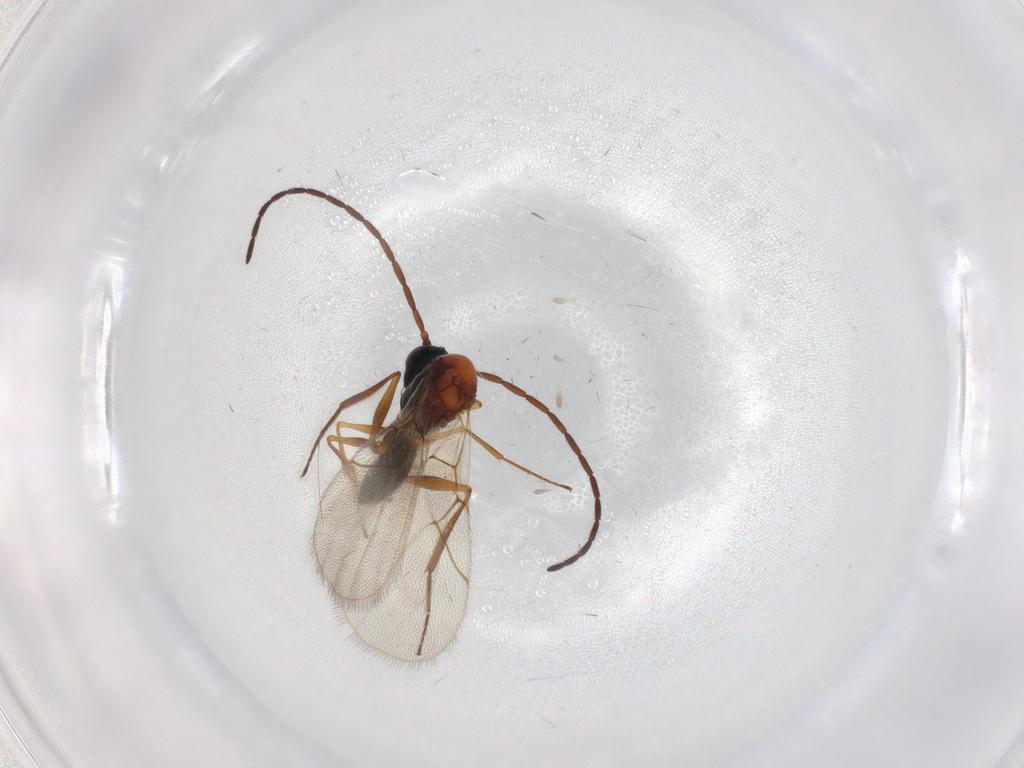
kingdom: Animalia
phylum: Arthropoda
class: Insecta
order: Hymenoptera
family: Figitidae
